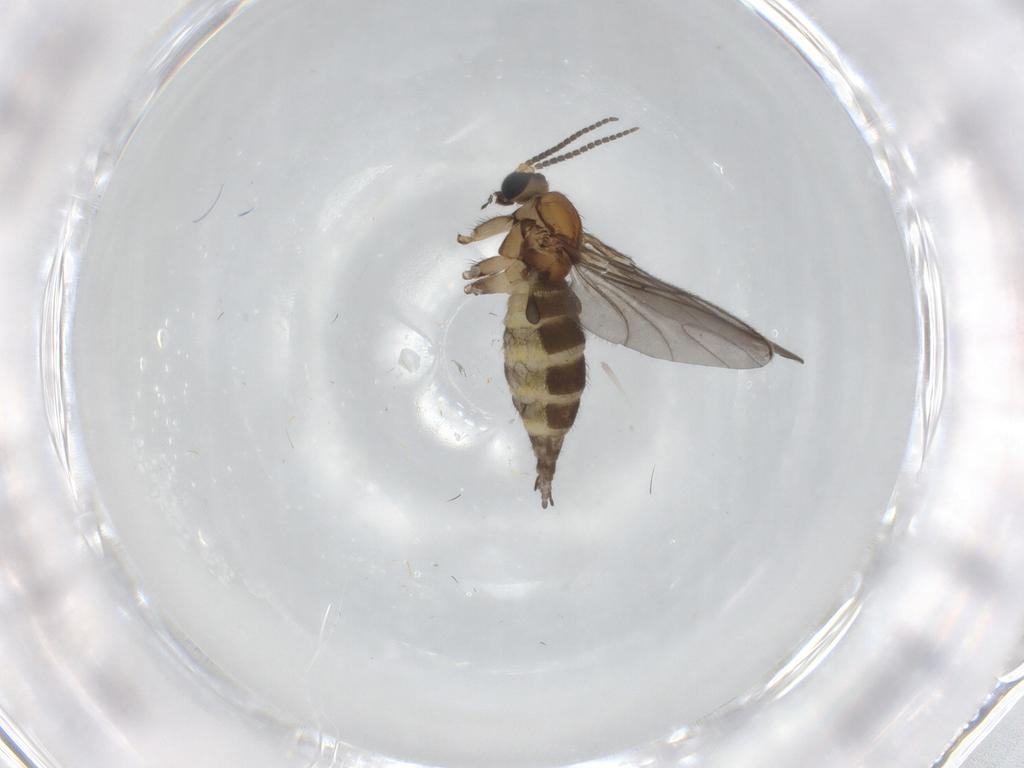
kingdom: Animalia
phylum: Arthropoda
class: Insecta
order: Diptera
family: Sciaridae
